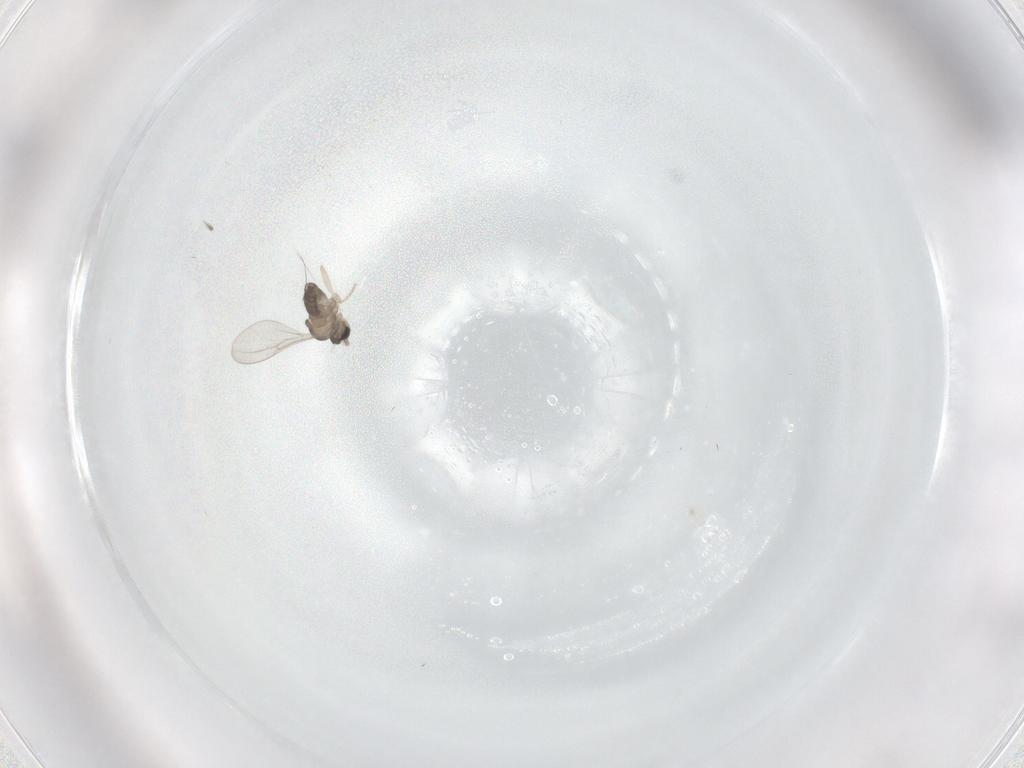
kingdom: Animalia
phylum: Arthropoda
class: Insecta
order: Diptera
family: Cecidomyiidae
